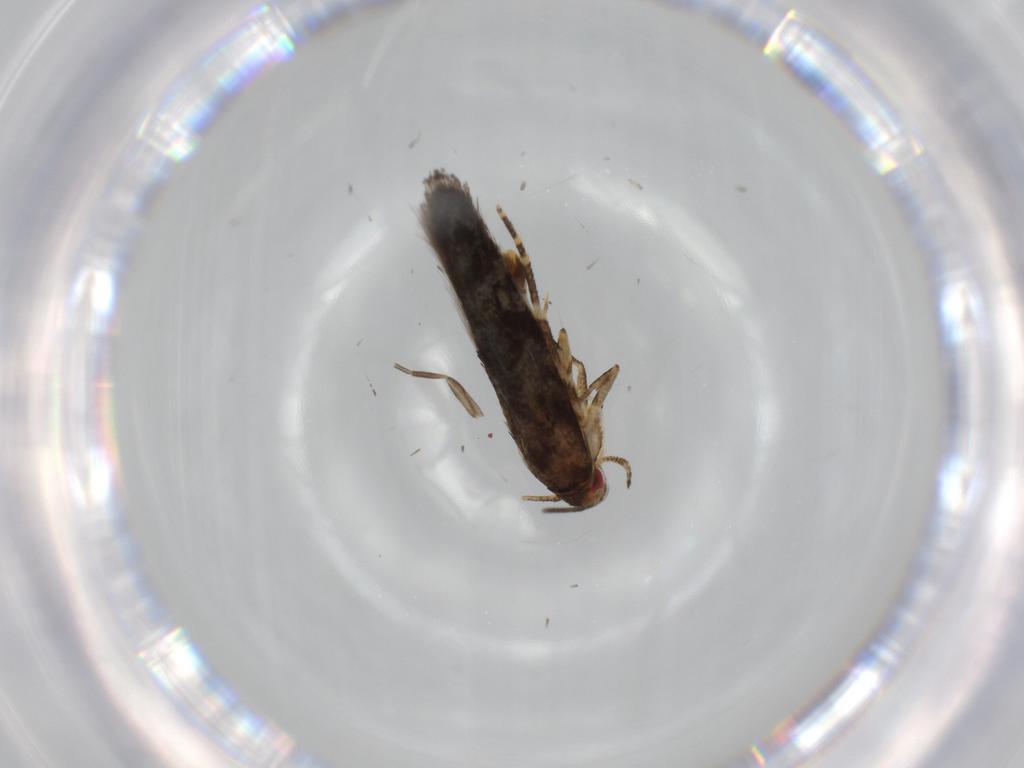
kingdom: Animalia
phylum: Arthropoda
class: Insecta
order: Lepidoptera
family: Momphidae
